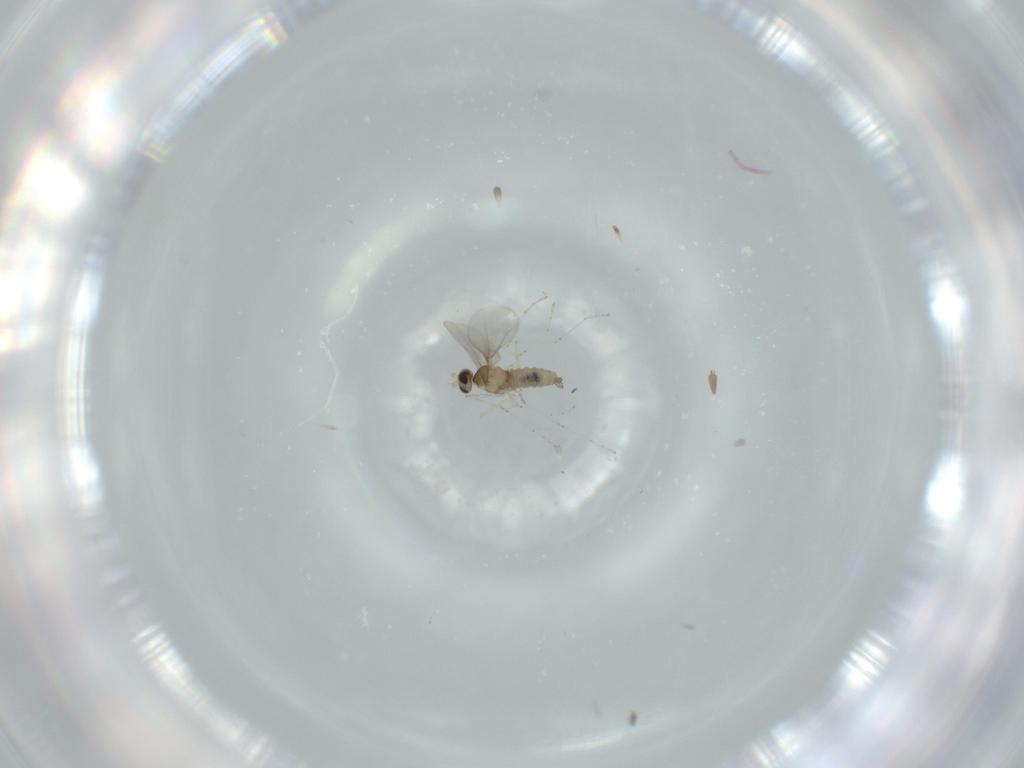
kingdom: Animalia
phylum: Arthropoda
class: Insecta
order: Diptera
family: Cecidomyiidae
